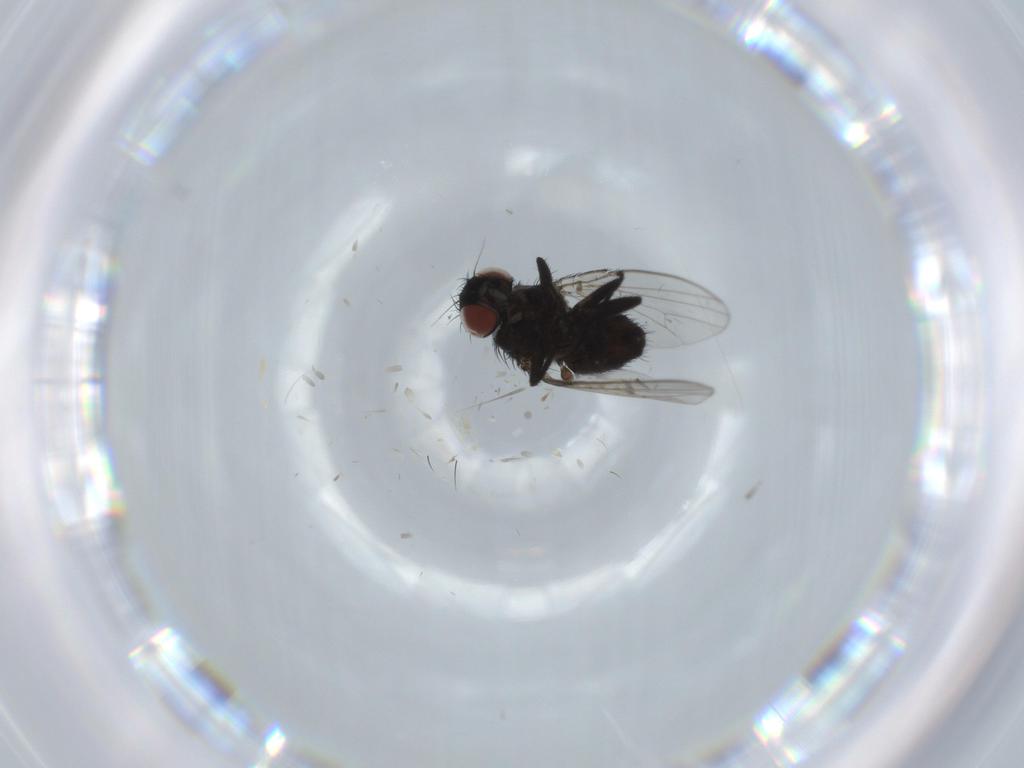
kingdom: Animalia
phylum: Arthropoda
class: Insecta
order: Diptera
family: Milichiidae
